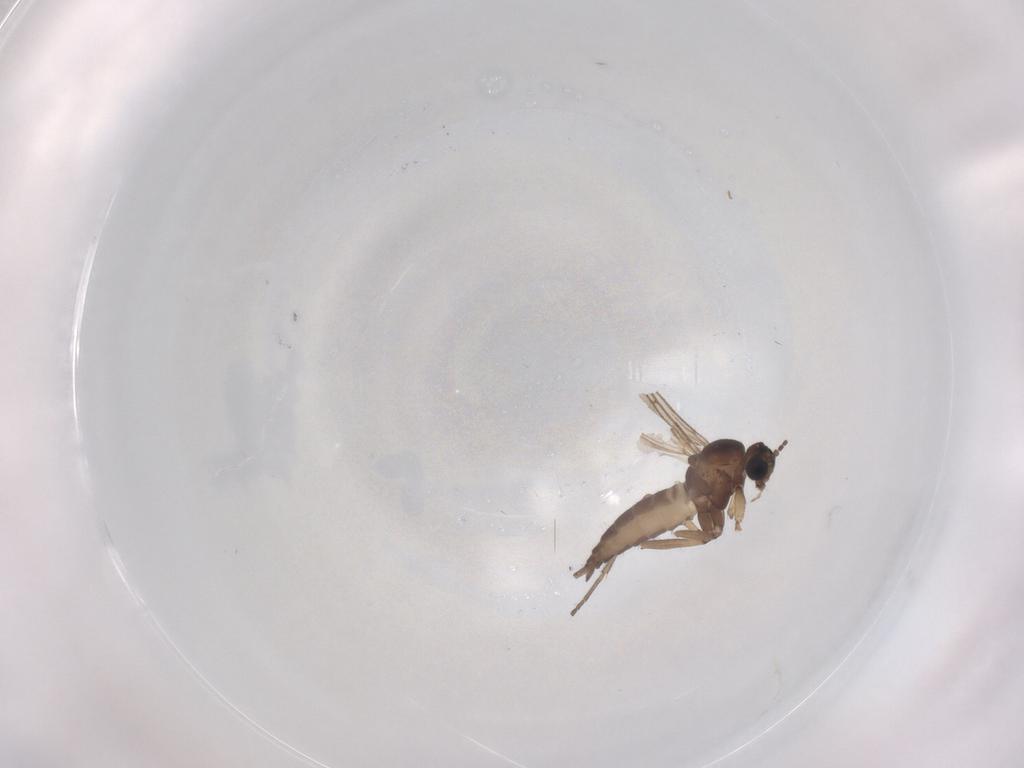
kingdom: Animalia
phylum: Arthropoda
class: Insecta
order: Diptera
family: Sciaridae
